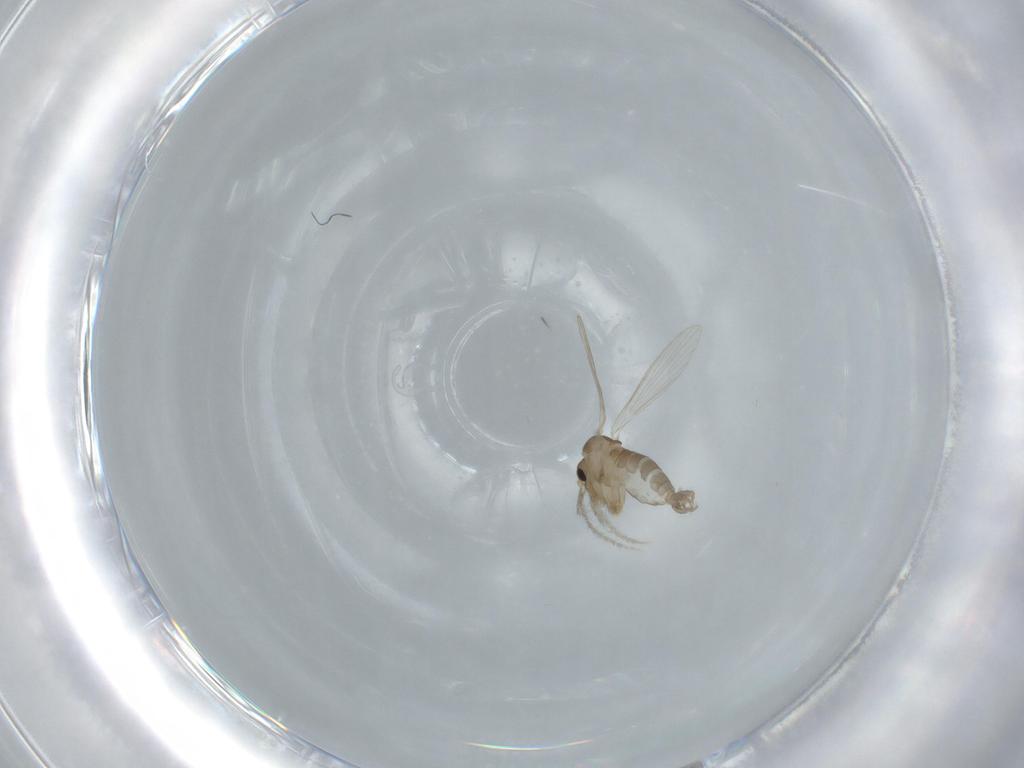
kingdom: Animalia
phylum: Arthropoda
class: Insecta
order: Diptera
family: Psychodidae
